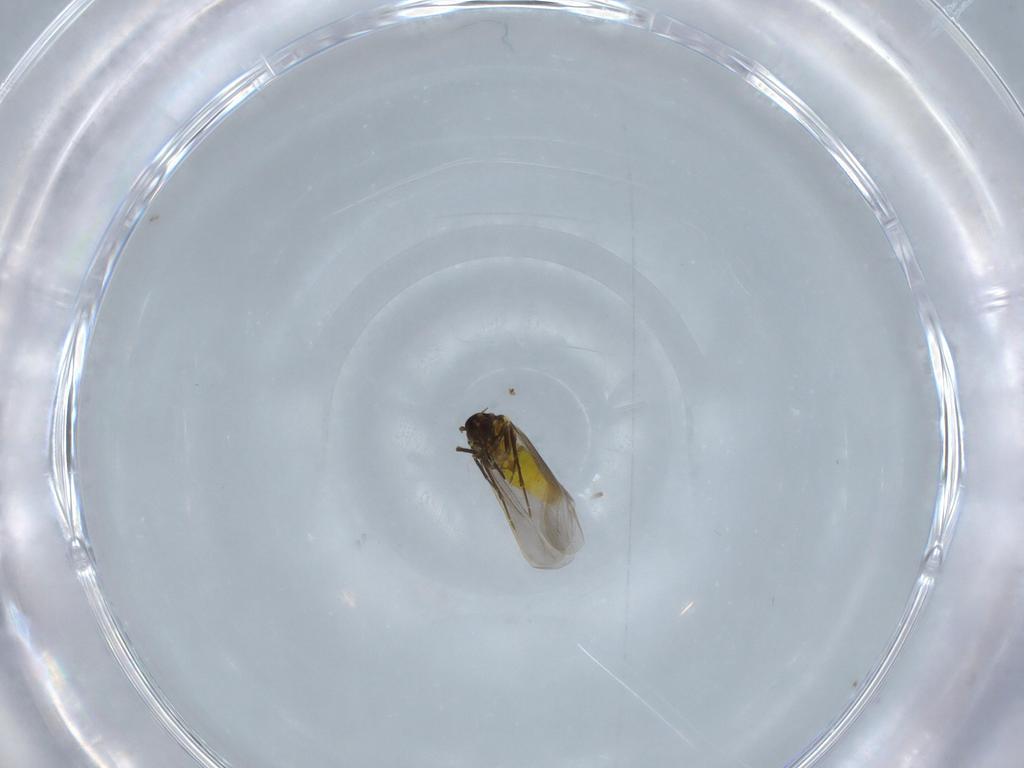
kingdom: Animalia
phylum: Arthropoda
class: Insecta
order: Hemiptera
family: Aleyrodidae
